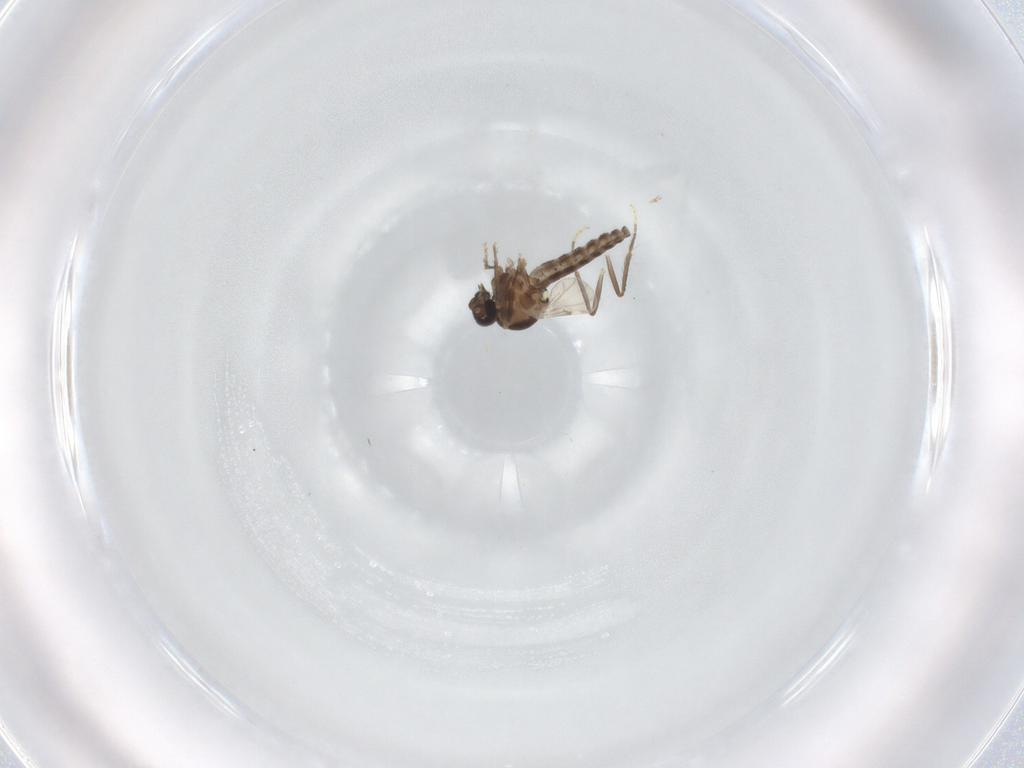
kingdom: Animalia
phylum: Arthropoda
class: Insecta
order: Diptera
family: Ceratopogonidae
